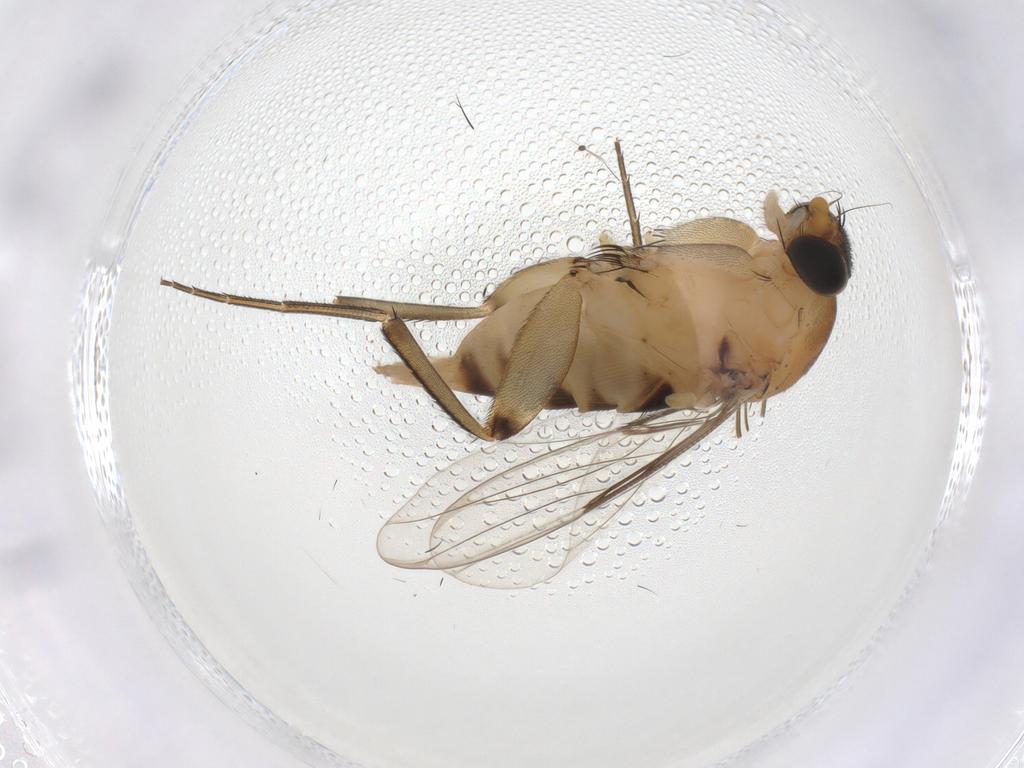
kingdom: Animalia
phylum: Arthropoda
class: Insecta
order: Diptera
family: Phoridae
